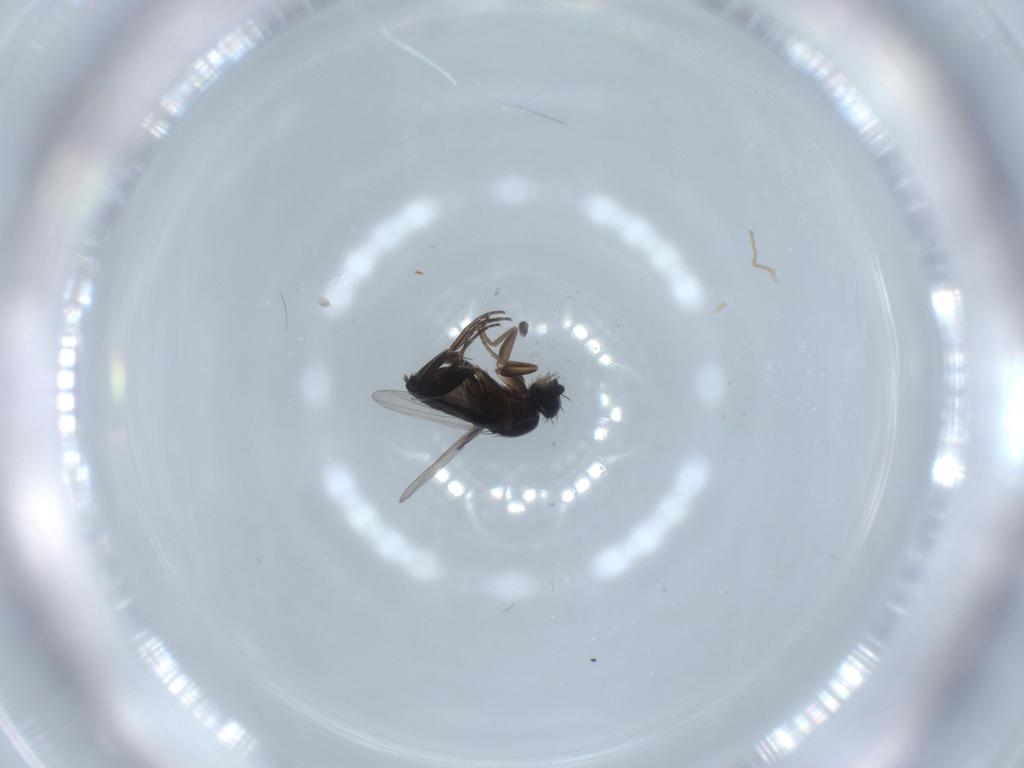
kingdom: Animalia
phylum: Arthropoda
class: Insecta
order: Diptera
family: Phoridae
